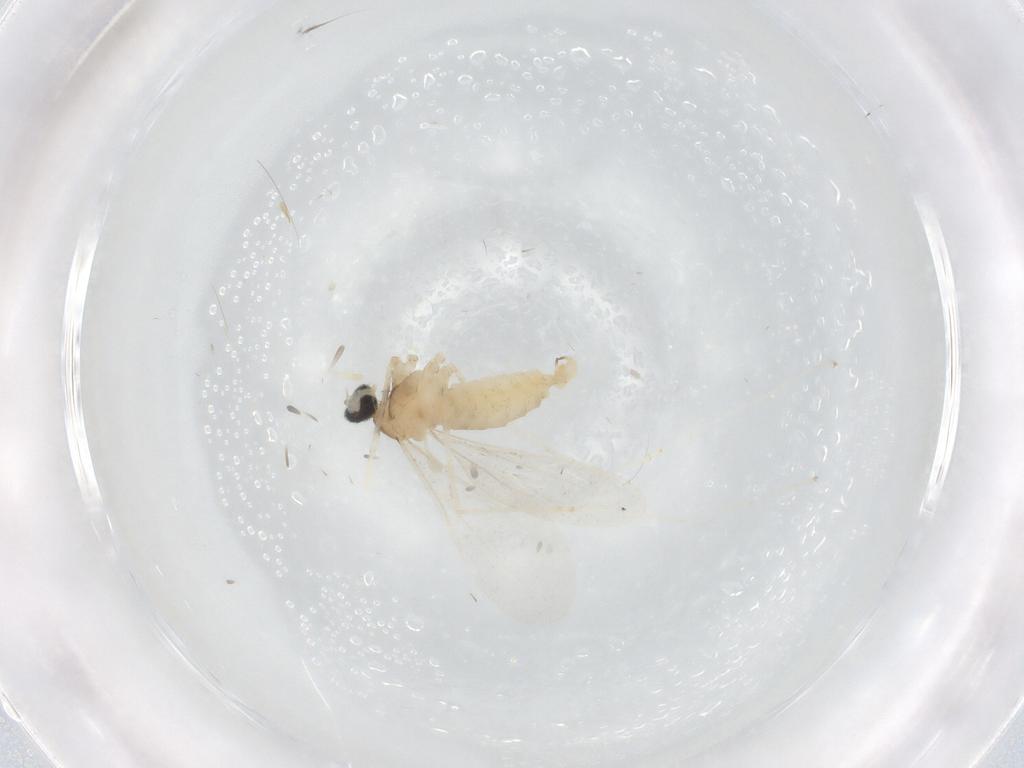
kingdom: Animalia
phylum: Arthropoda
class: Insecta
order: Diptera
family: Cecidomyiidae
